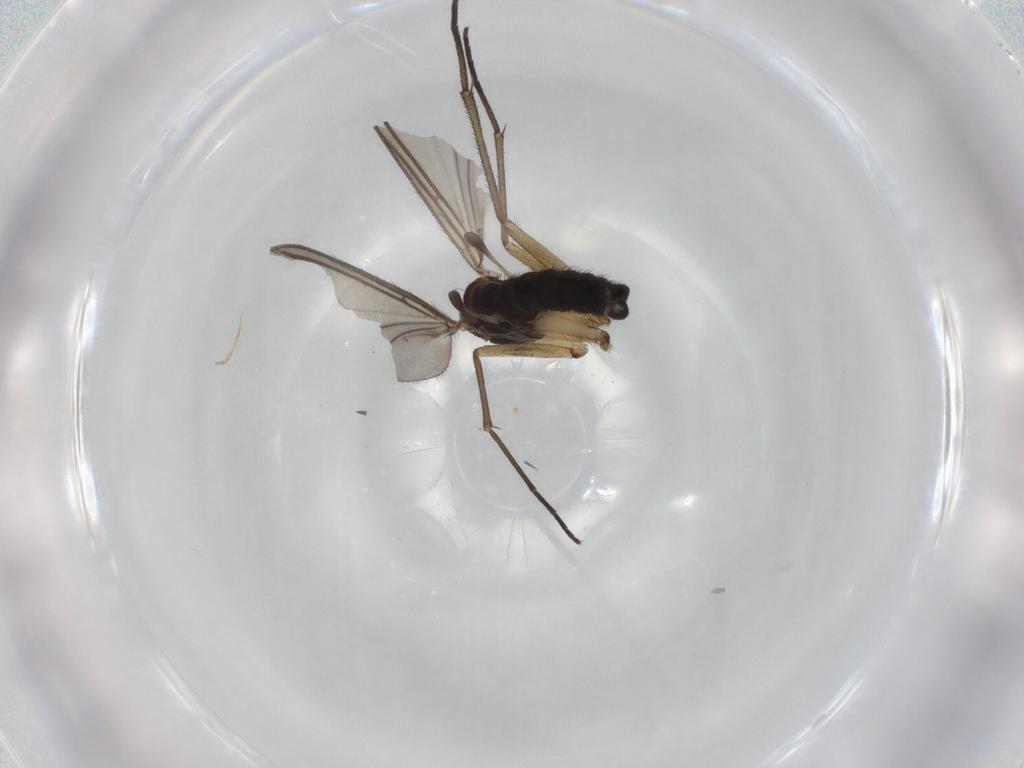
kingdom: Animalia
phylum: Arthropoda
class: Insecta
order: Diptera
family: Sciaridae
